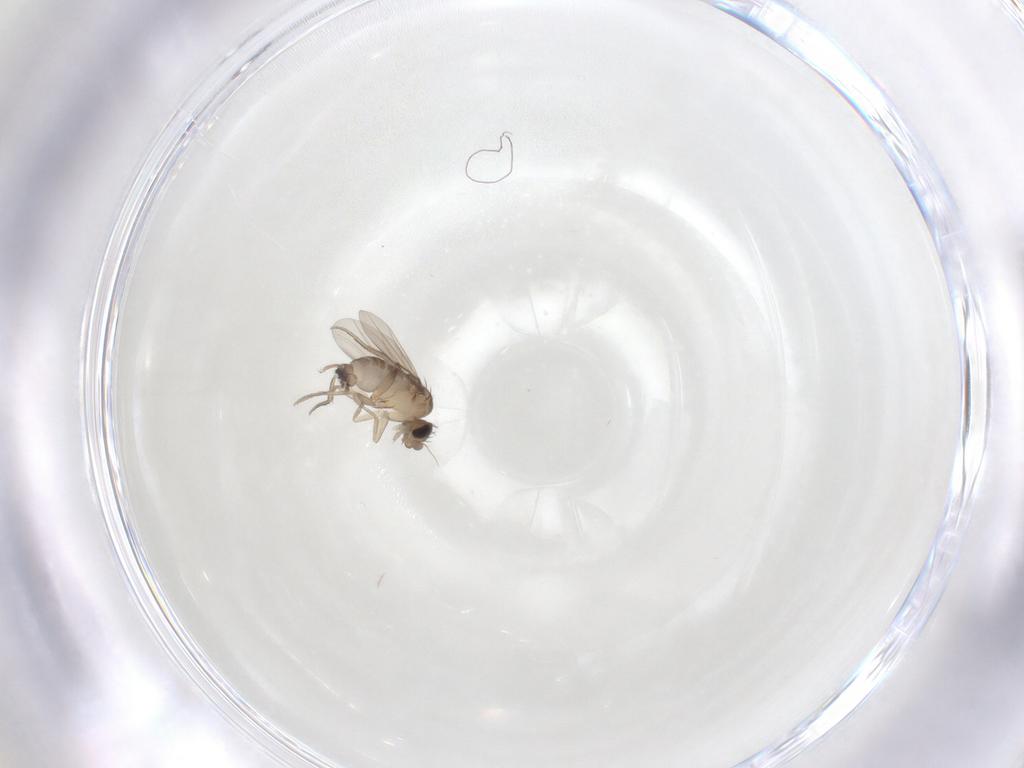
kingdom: Animalia
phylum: Arthropoda
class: Insecta
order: Diptera
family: Phoridae
